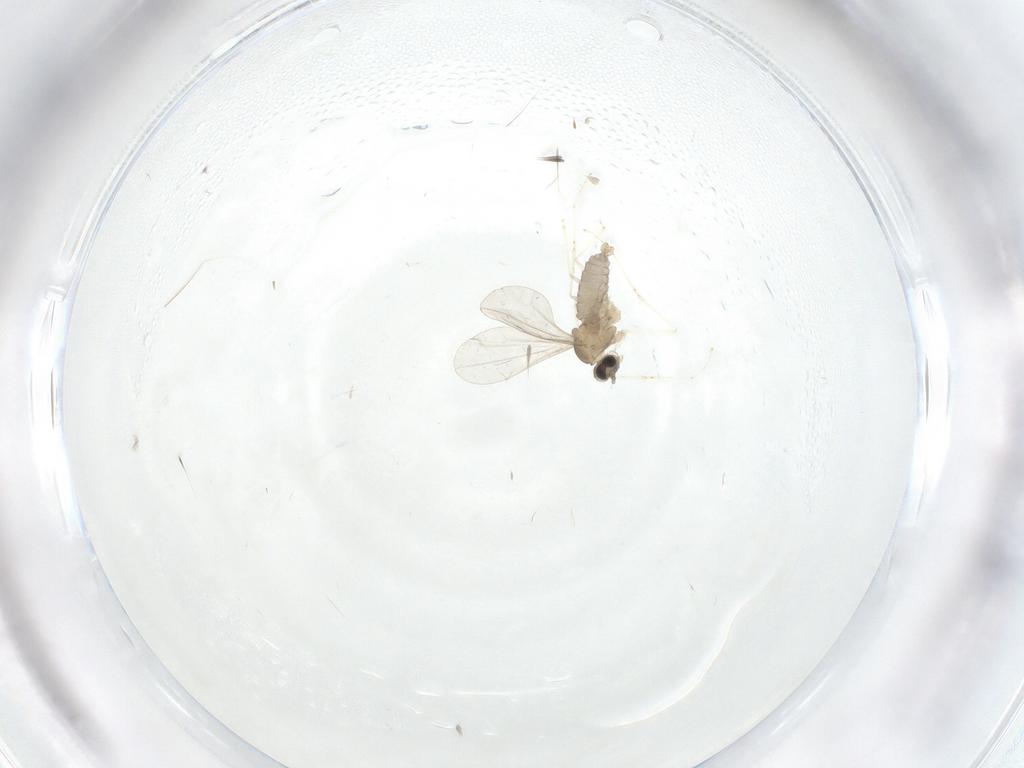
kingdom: Animalia
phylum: Arthropoda
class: Insecta
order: Diptera
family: Cecidomyiidae
